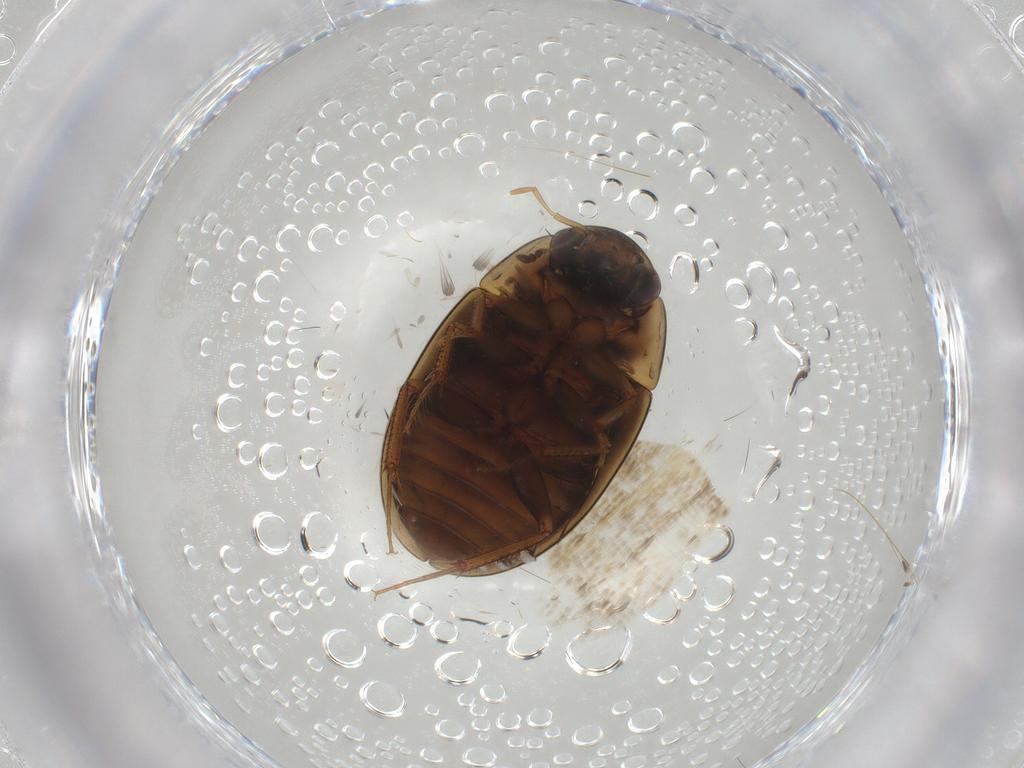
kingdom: Animalia
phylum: Arthropoda
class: Insecta
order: Coleoptera
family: Hydrophilidae
